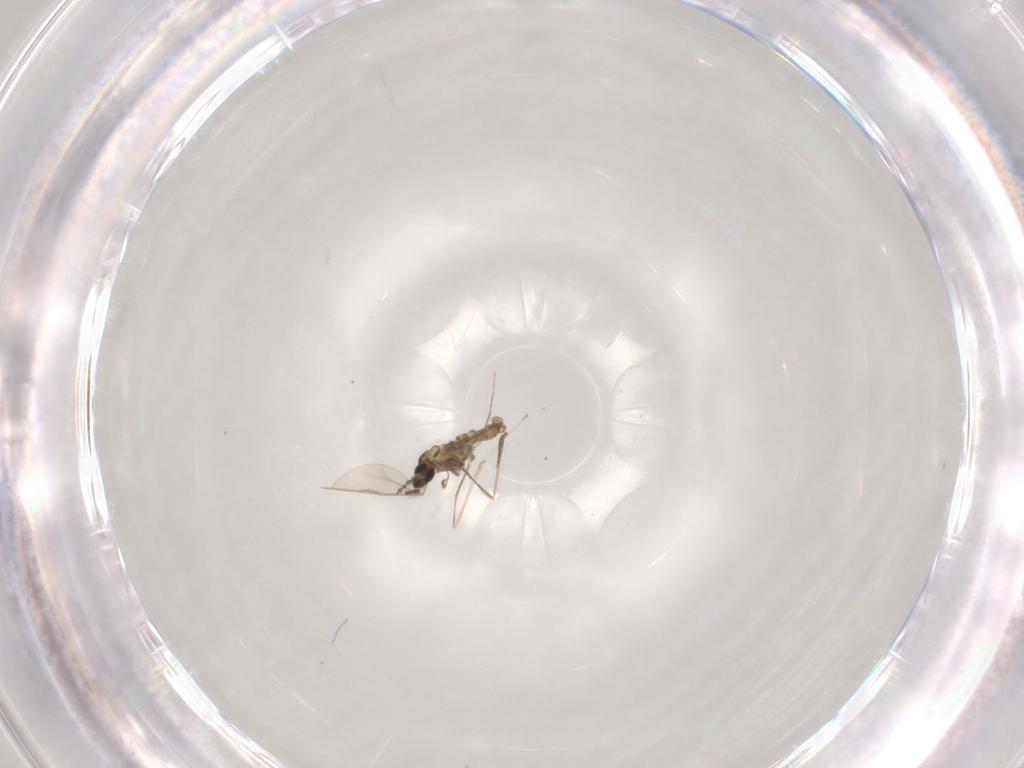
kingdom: Animalia
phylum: Arthropoda
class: Insecta
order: Diptera
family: Cecidomyiidae
